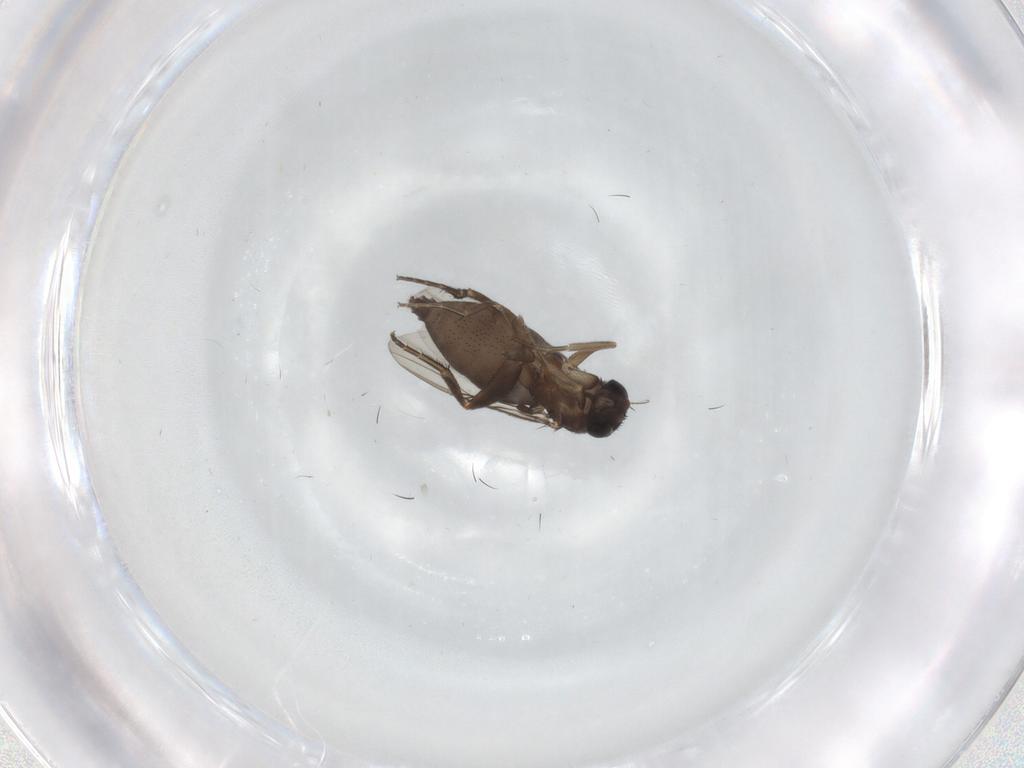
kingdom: Animalia
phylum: Arthropoda
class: Insecta
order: Diptera
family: Phoridae
